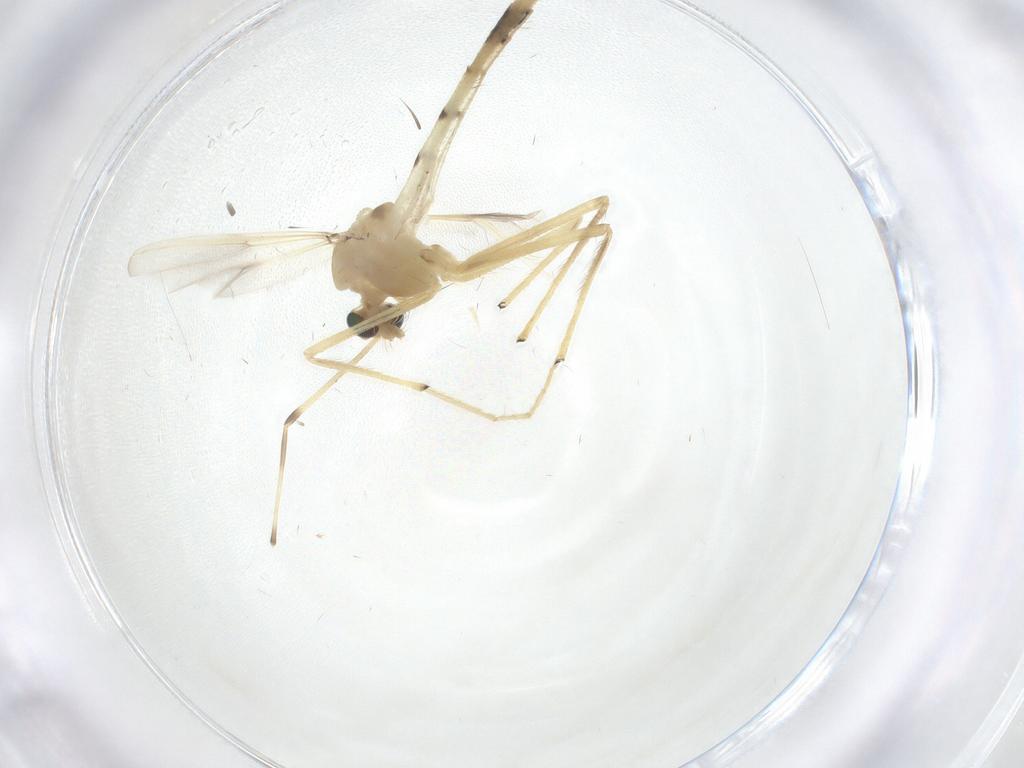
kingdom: Animalia
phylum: Arthropoda
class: Insecta
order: Diptera
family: Chironomidae
